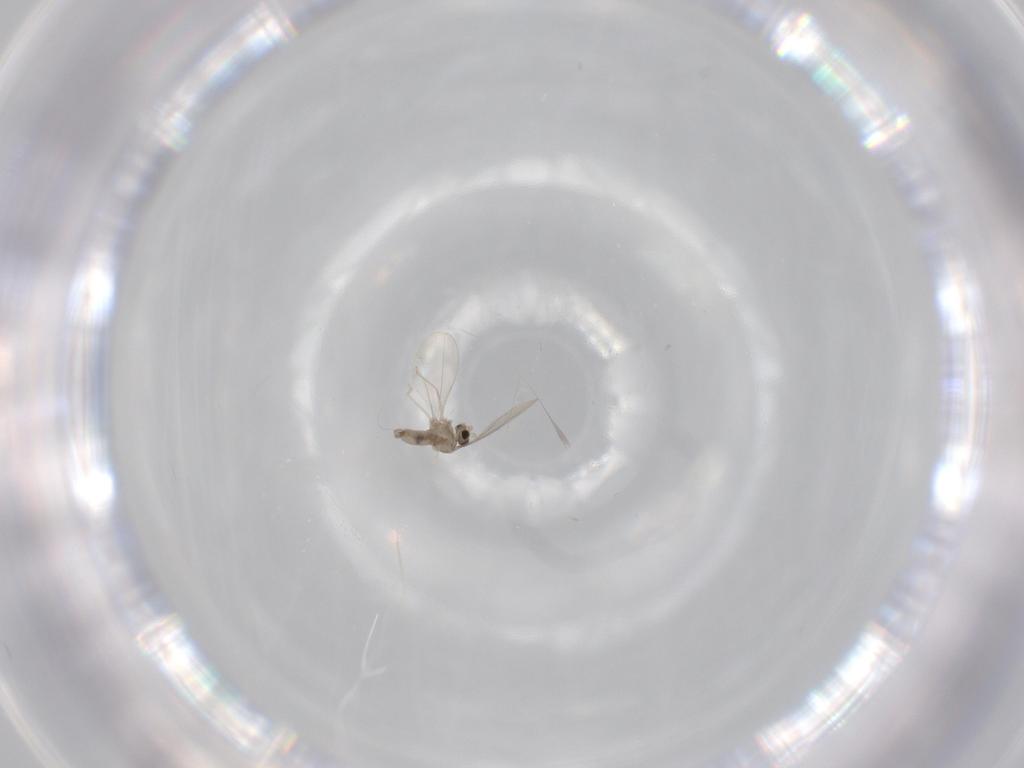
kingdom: Animalia
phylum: Arthropoda
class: Insecta
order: Diptera
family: Cecidomyiidae
